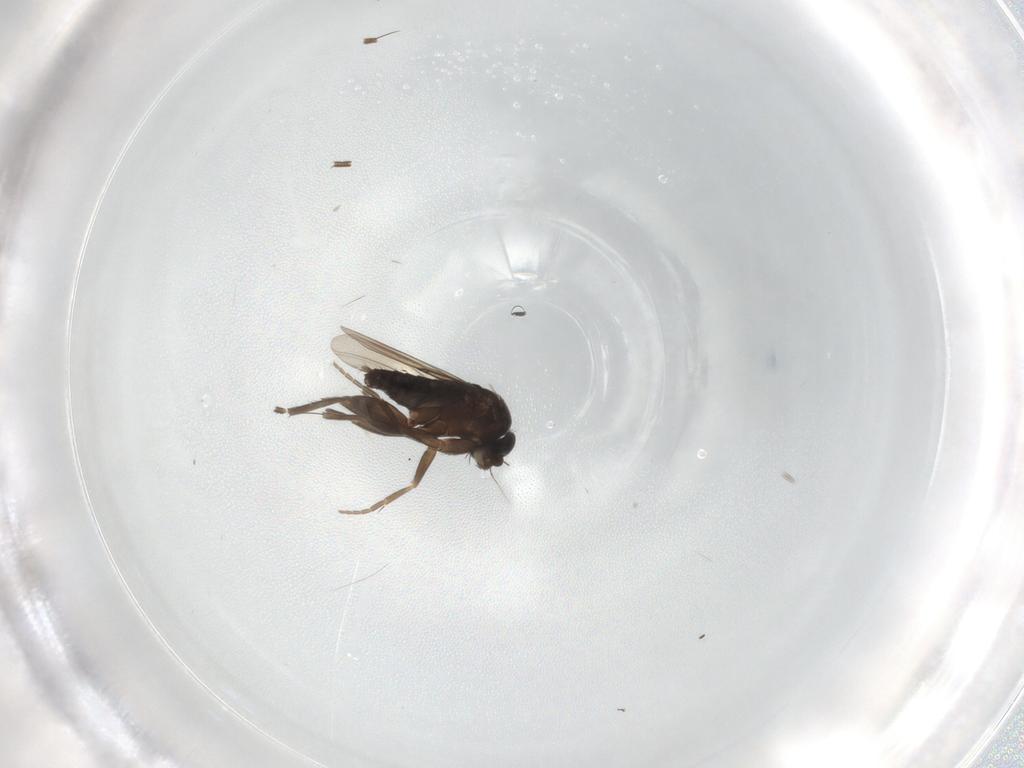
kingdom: Animalia
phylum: Arthropoda
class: Insecta
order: Diptera
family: Phoridae
